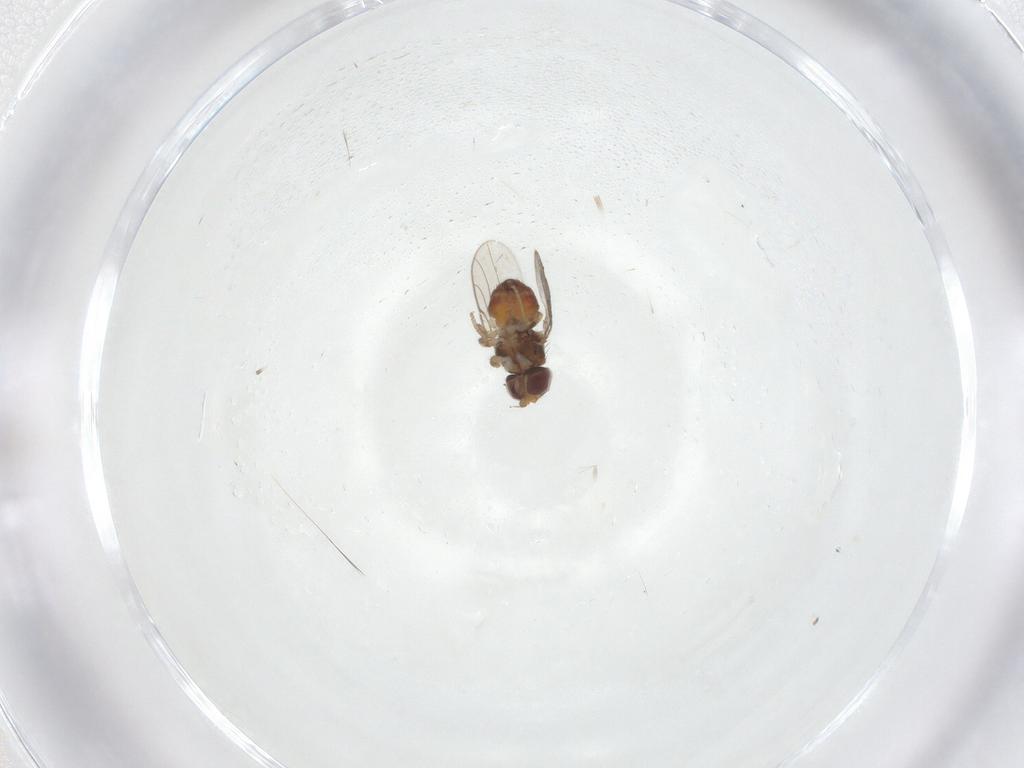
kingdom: Animalia
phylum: Arthropoda
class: Insecta
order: Diptera
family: Chloropidae
